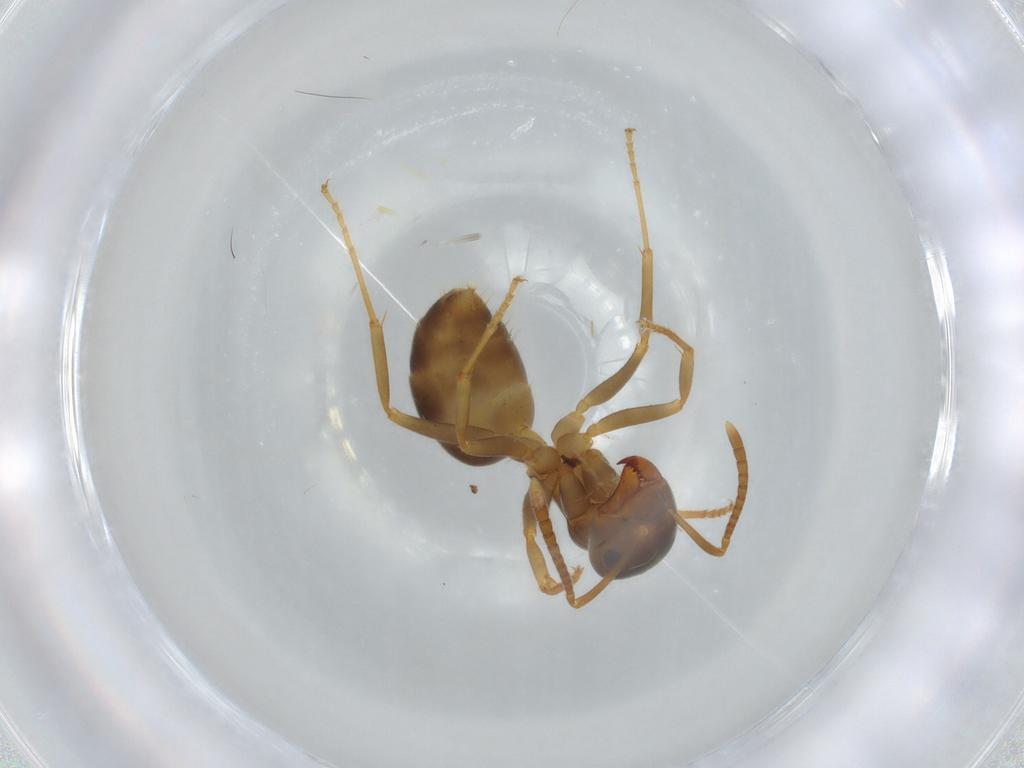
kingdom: Animalia
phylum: Arthropoda
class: Insecta
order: Hymenoptera
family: Formicidae
